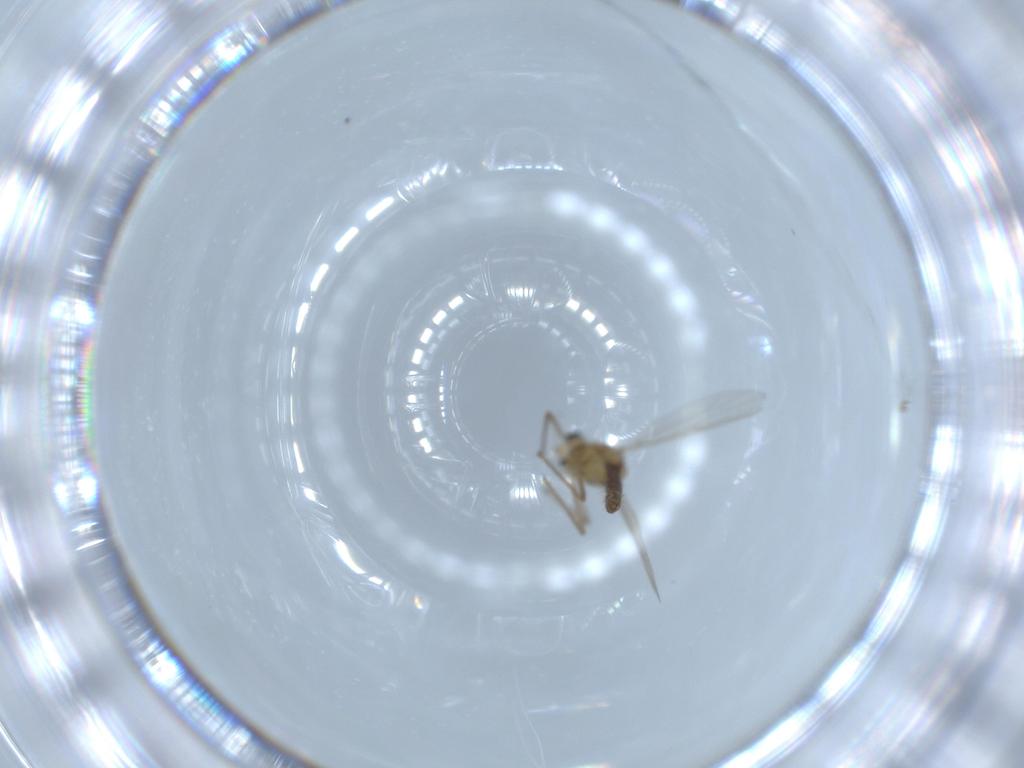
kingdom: Animalia
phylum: Arthropoda
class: Insecta
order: Diptera
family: Chironomidae
